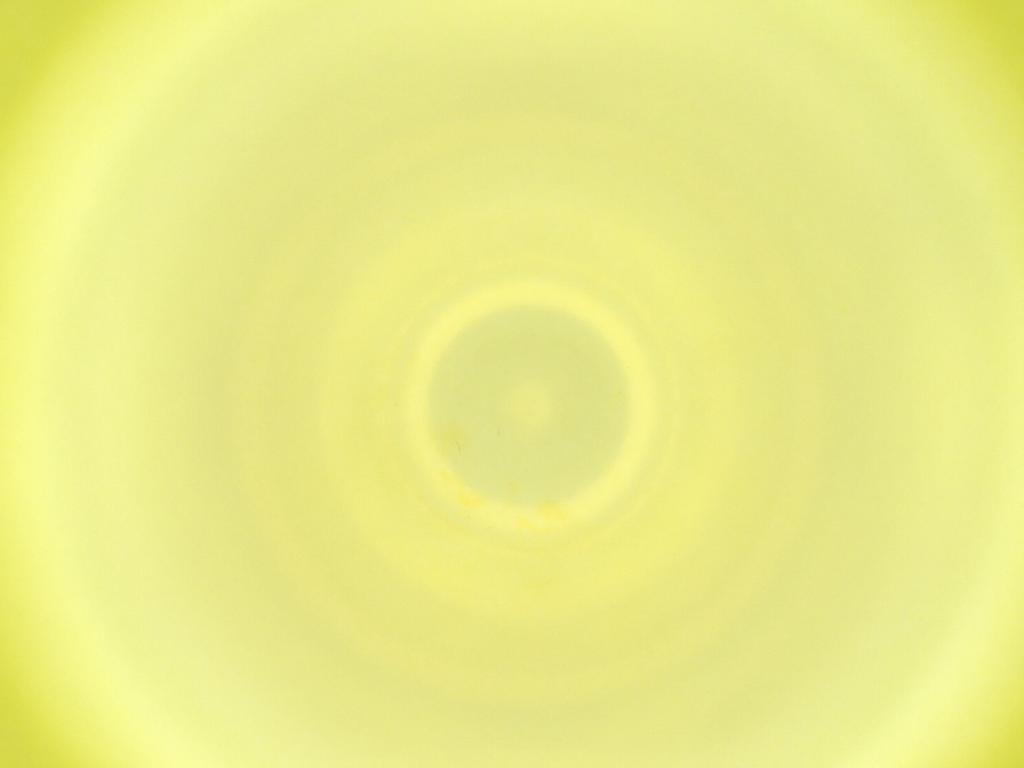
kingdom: Animalia
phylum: Arthropoda
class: Insecta
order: Diptera
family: Cecidomyiidae
